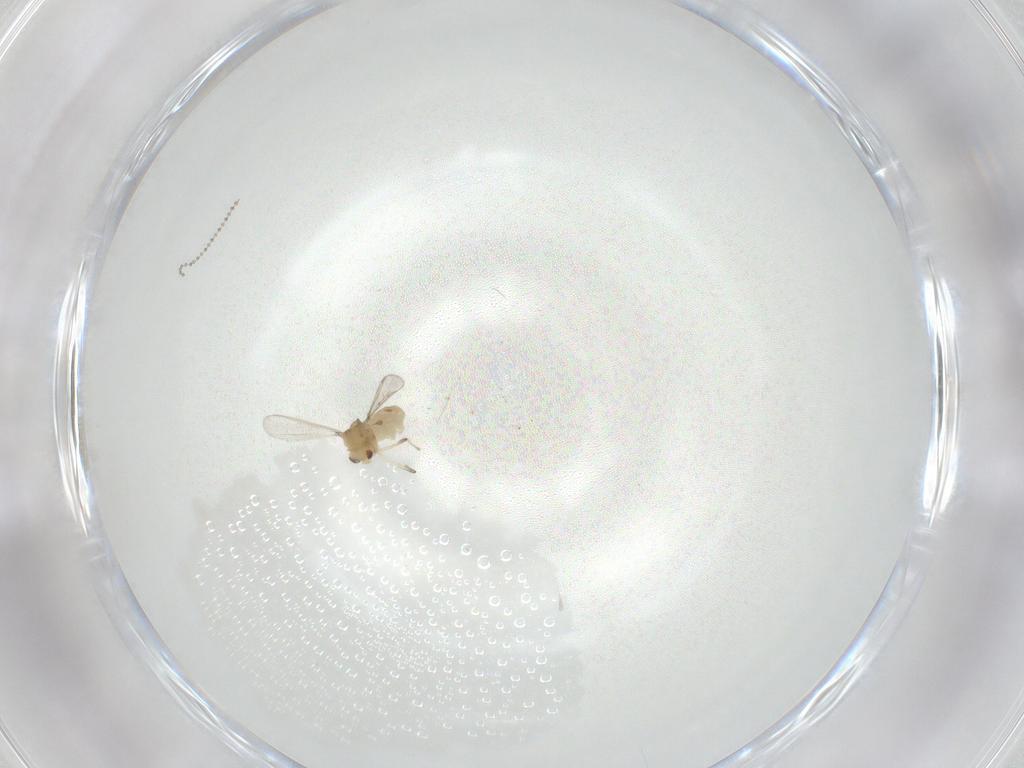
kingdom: Animalia
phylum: Arthropoda
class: Insecta
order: Diptera
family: Chironomidae
